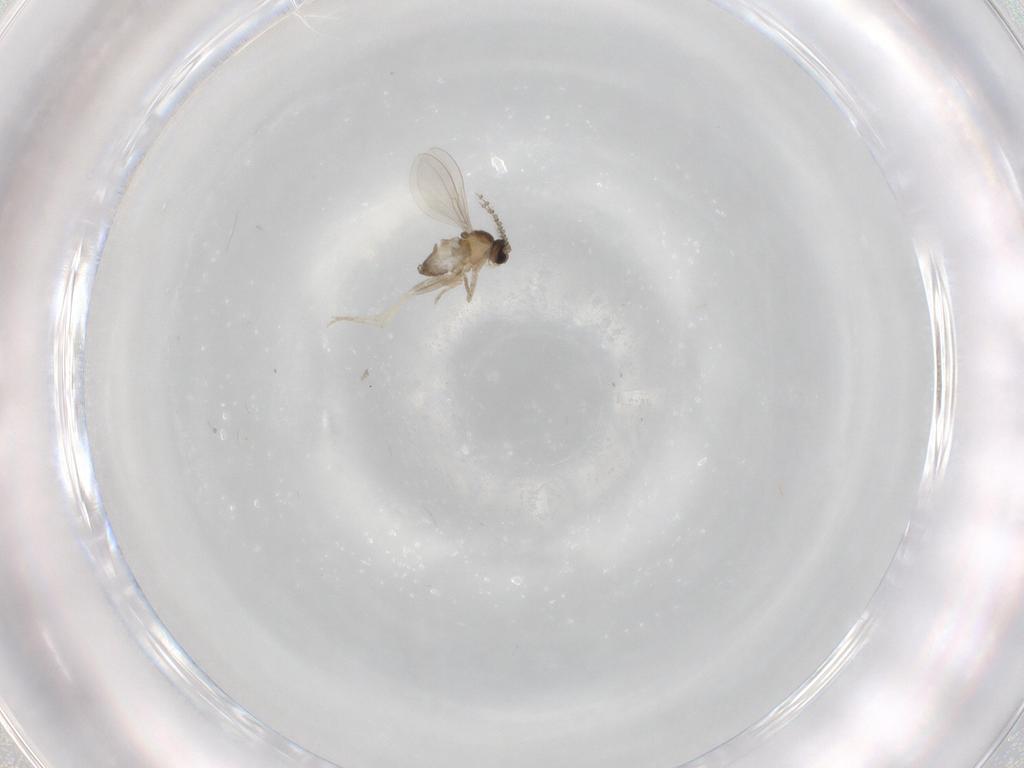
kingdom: Animalia
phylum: Arthropoda
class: Insecta
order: Diptera
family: Cecidomyiidae
